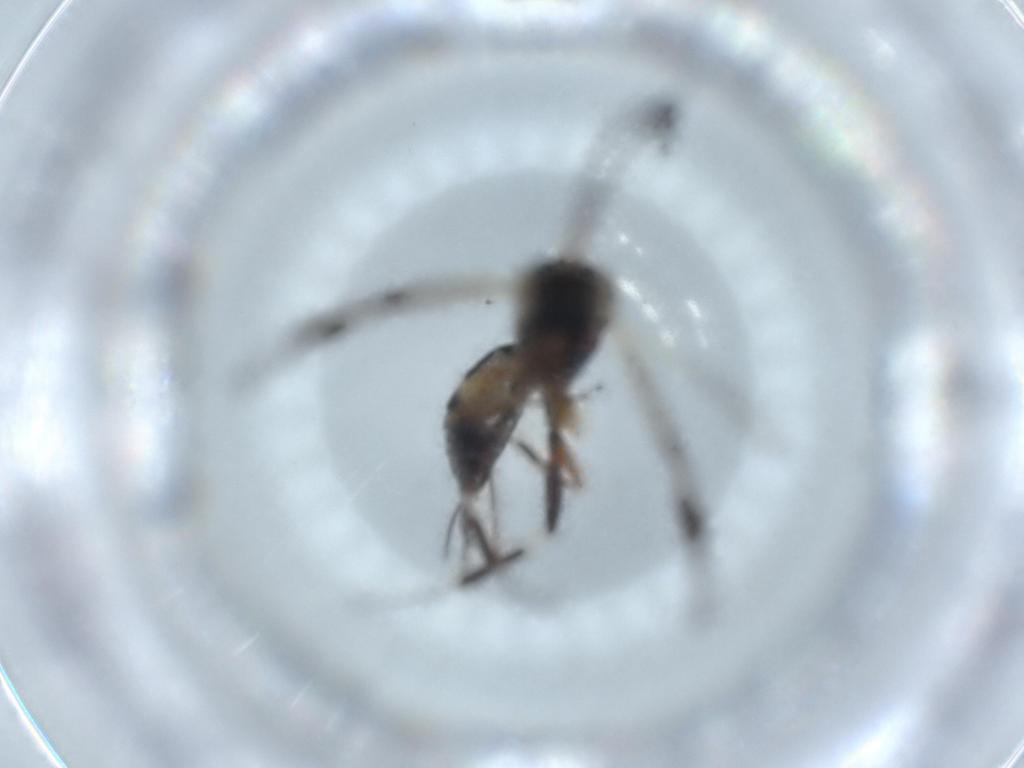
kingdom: Animalia
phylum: Arthropoda
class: Insecta
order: Hymenoptera
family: Ichneumonidae
